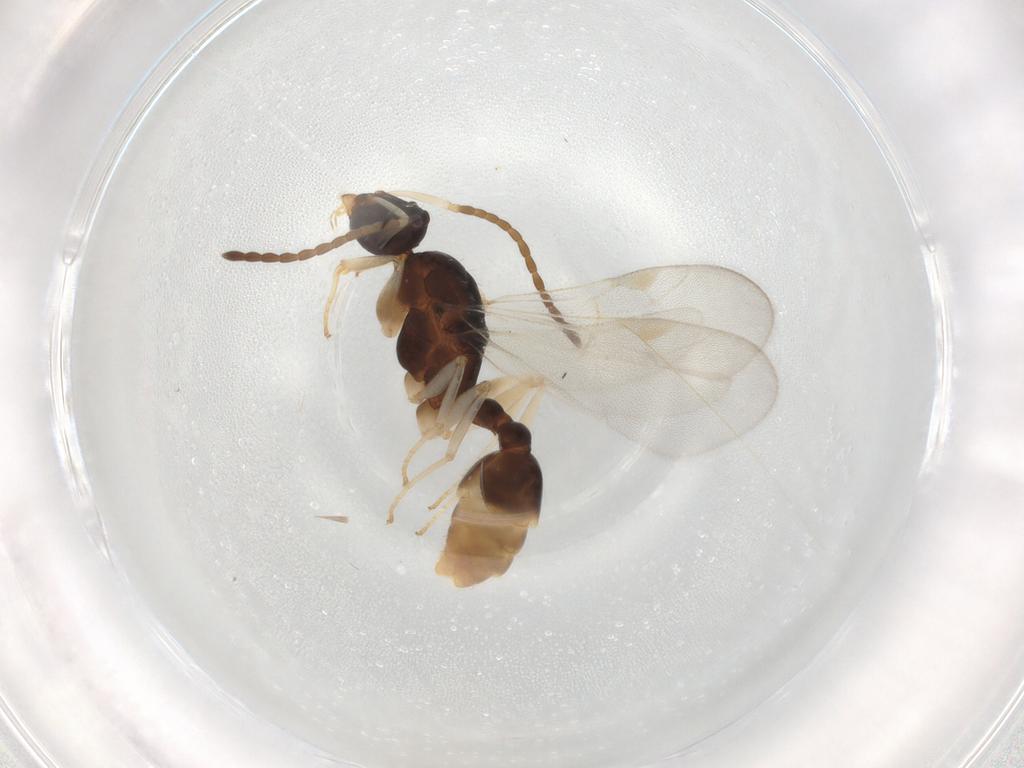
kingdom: Animalia
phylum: Arthropoda
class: Insecta
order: Hymenoptera
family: Formicidae
